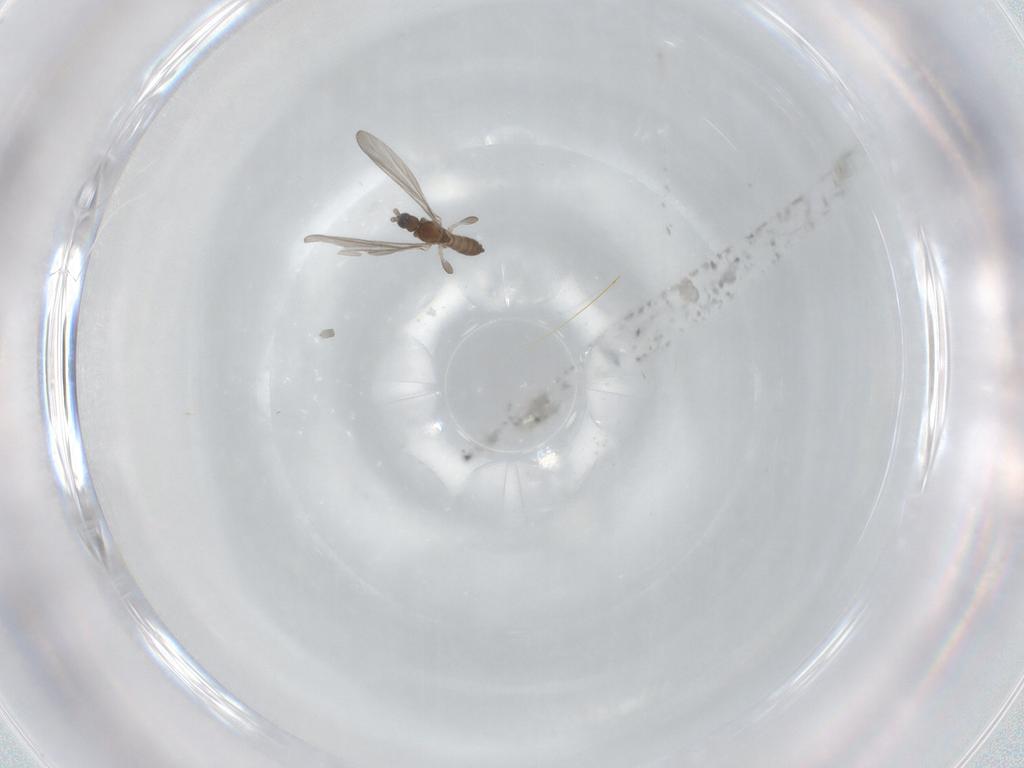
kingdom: Animalia
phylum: Arthropoda
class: Insecta
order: Diptera
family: Sciaridae
